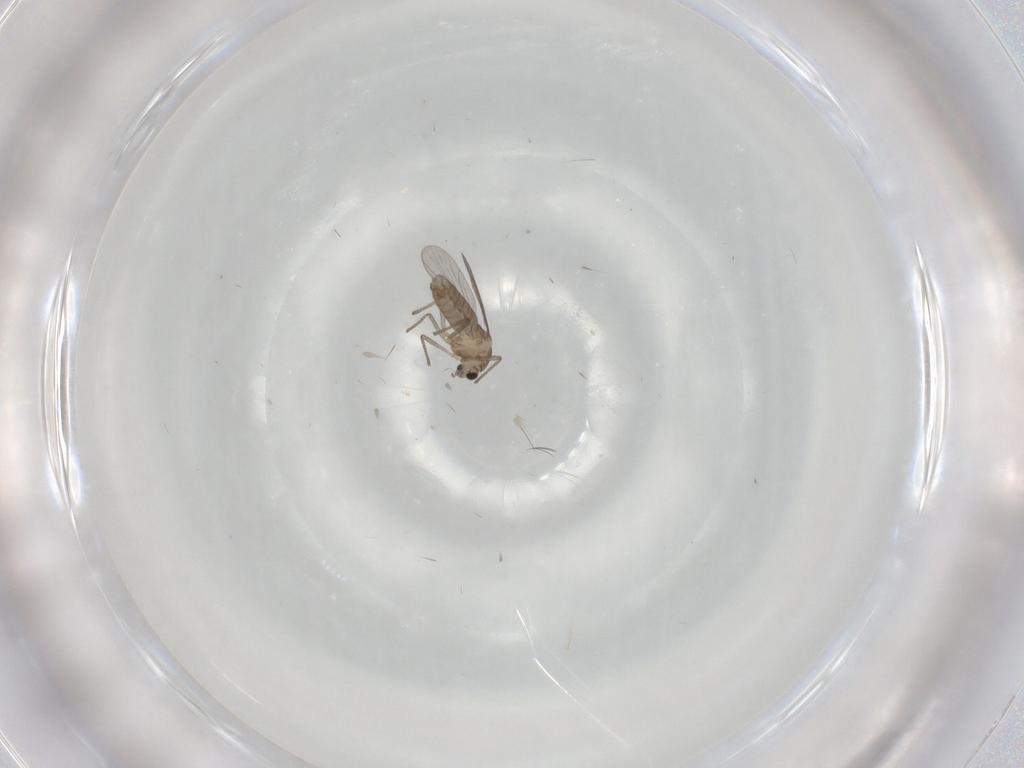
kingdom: Animalia
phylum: Arthropoda
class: Insecta
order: Diptera
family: Chironomidae
